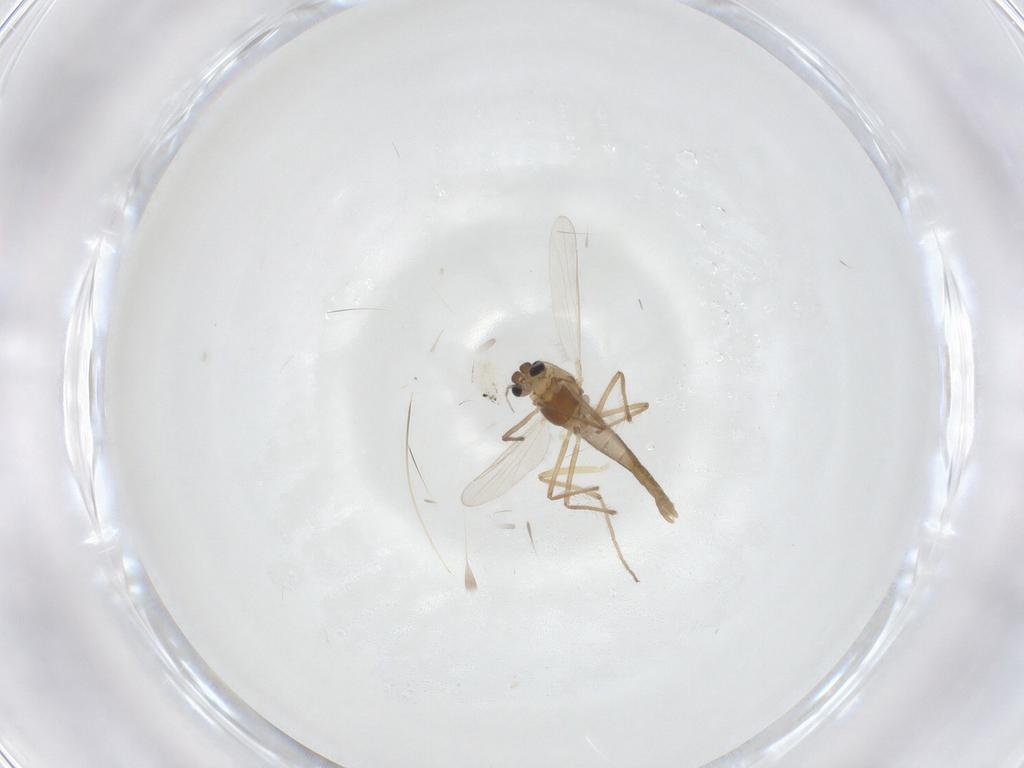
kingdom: Animalia
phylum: Arthropoda
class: Insecta
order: Diptera
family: Chironomidae
